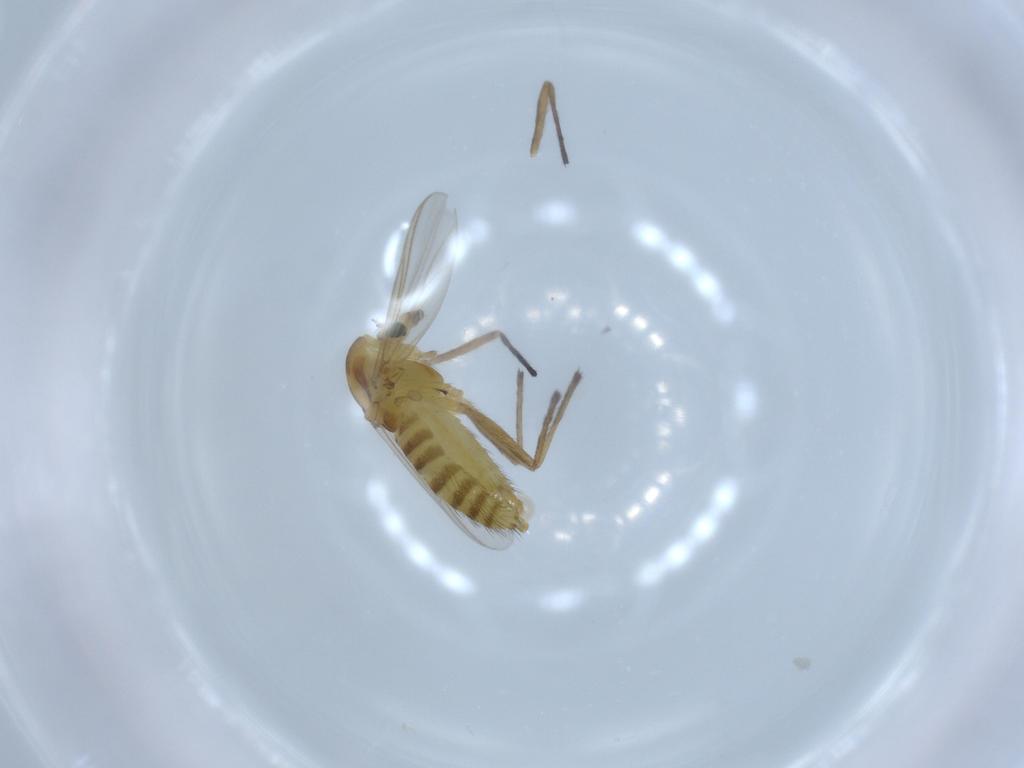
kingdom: Animalia
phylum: Arthropoda
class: Insecta
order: Diptera
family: Chironomidae
